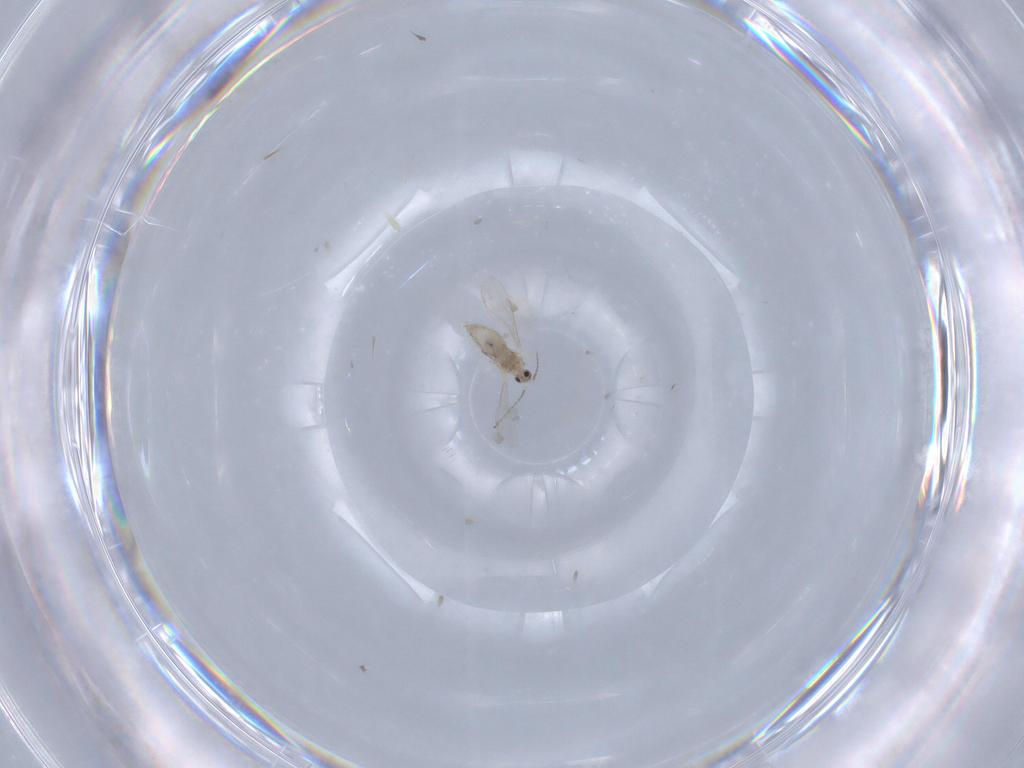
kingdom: Animalia
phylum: Arthropoda
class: Insecta
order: Diptera
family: Cecidomyiidae
